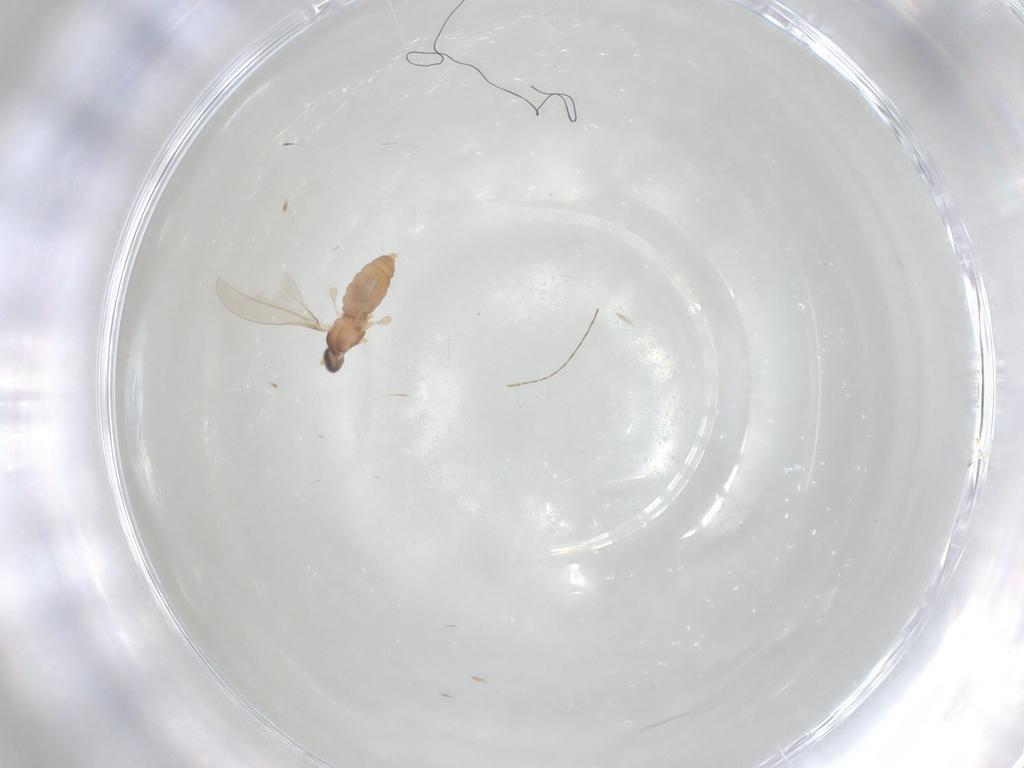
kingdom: Animalia
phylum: Arthropoda
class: Insecta
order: Diptera
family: Cecidomyiidae
